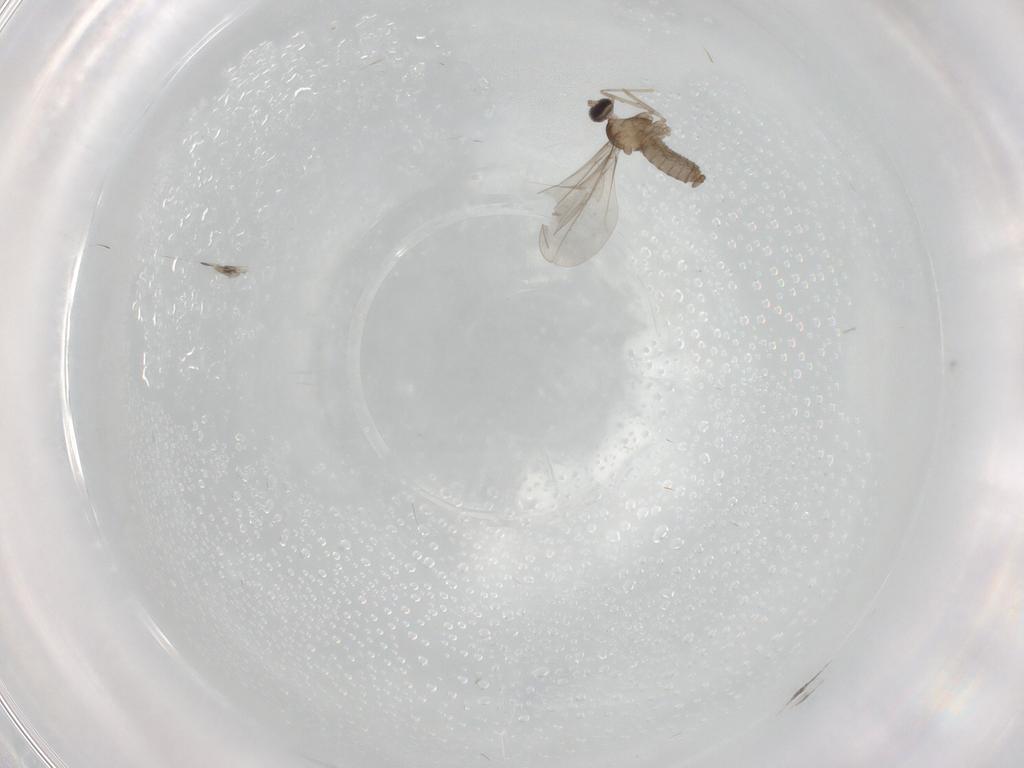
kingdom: Animalia
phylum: Arthropoda
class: Insecta
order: Diptera
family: Cecidomyiidae
